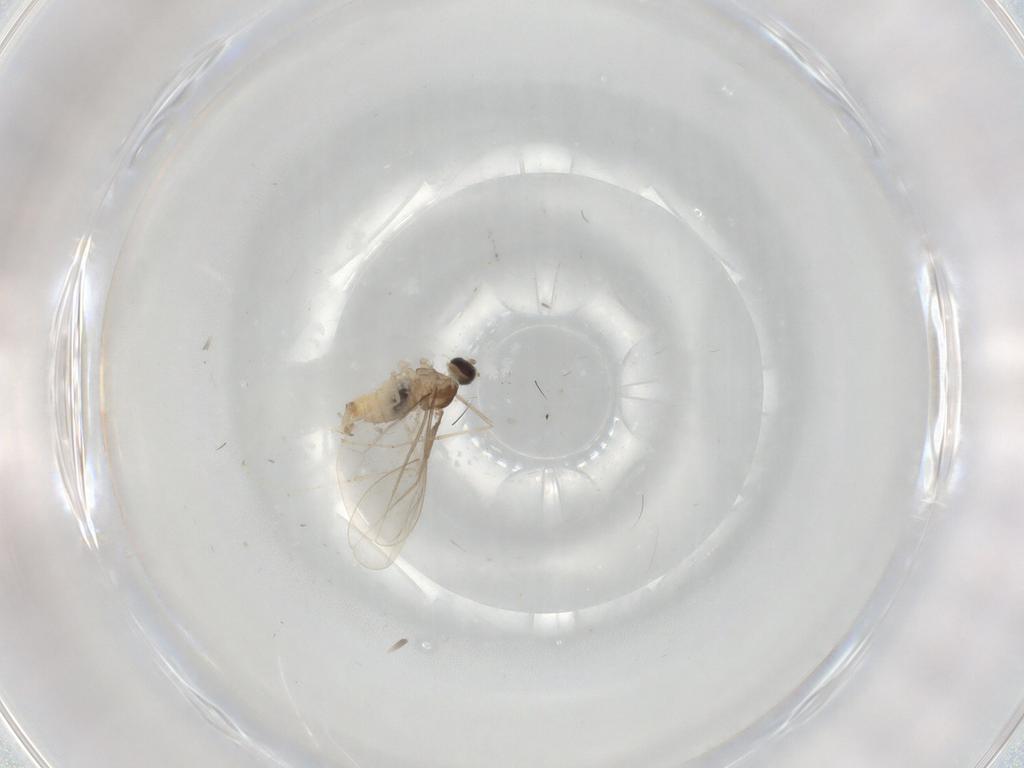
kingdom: Animalia
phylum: Arthropoda
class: Insecta
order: Diptera
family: Cecidomyiidae
